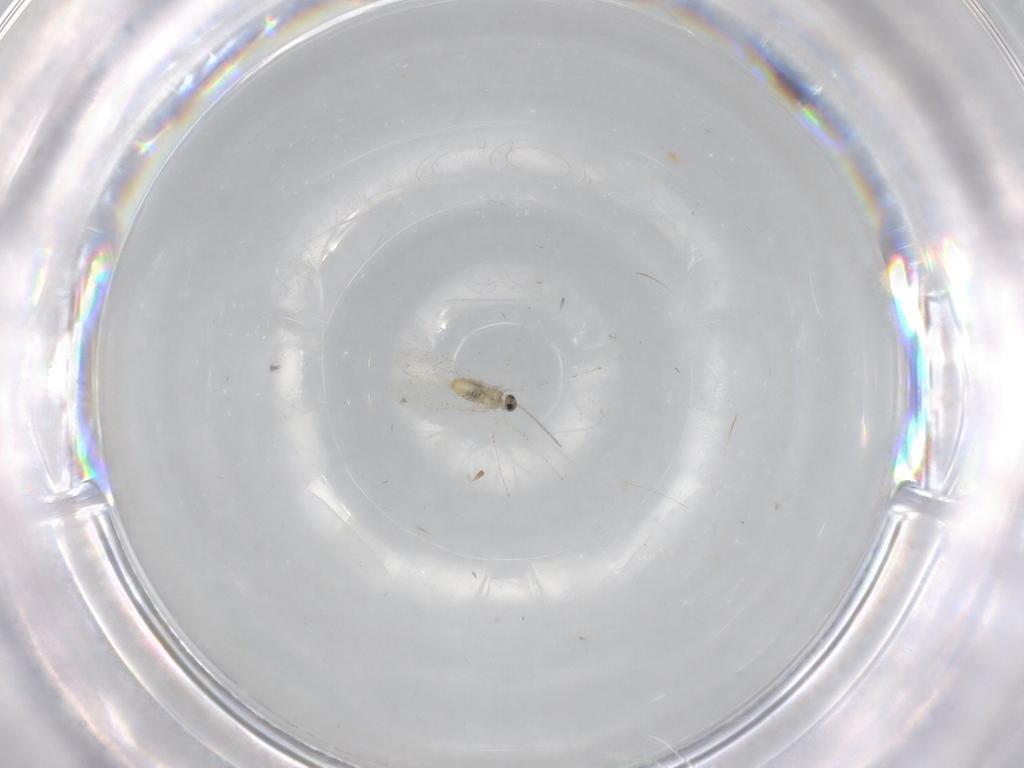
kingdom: Animalia
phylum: Arthropoda
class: Insecta
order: Diptera
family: Cecidomyiidae
